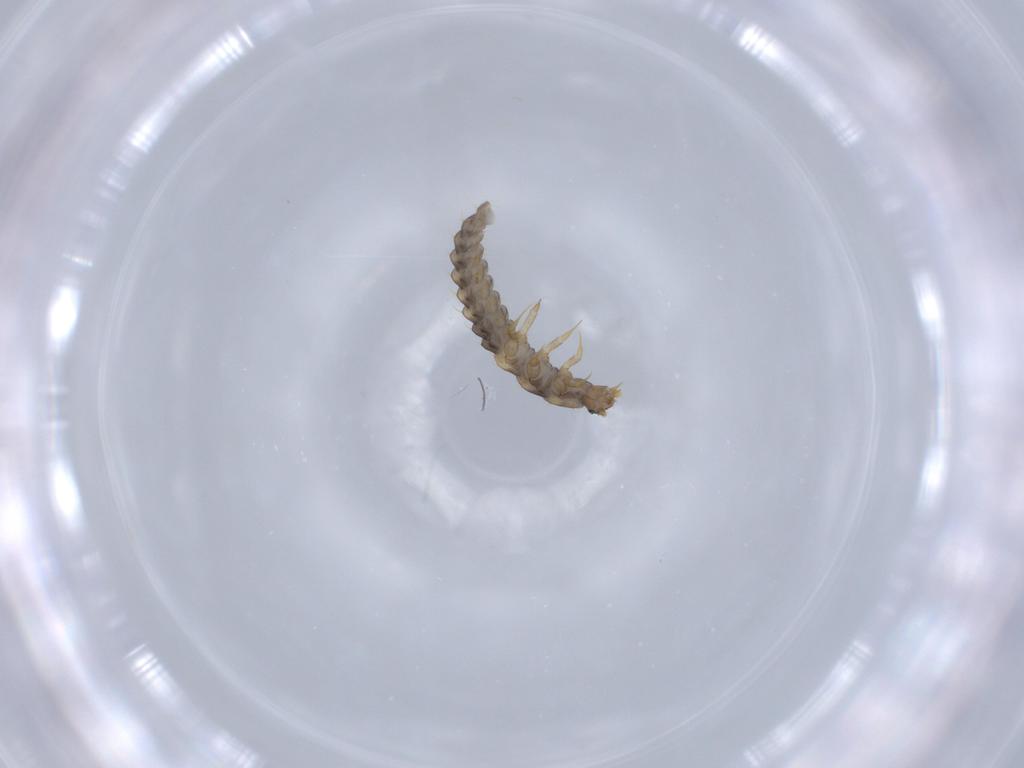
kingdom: Animalia
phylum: Arthropoda
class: Insecta
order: Coleoptera
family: Lycidae
